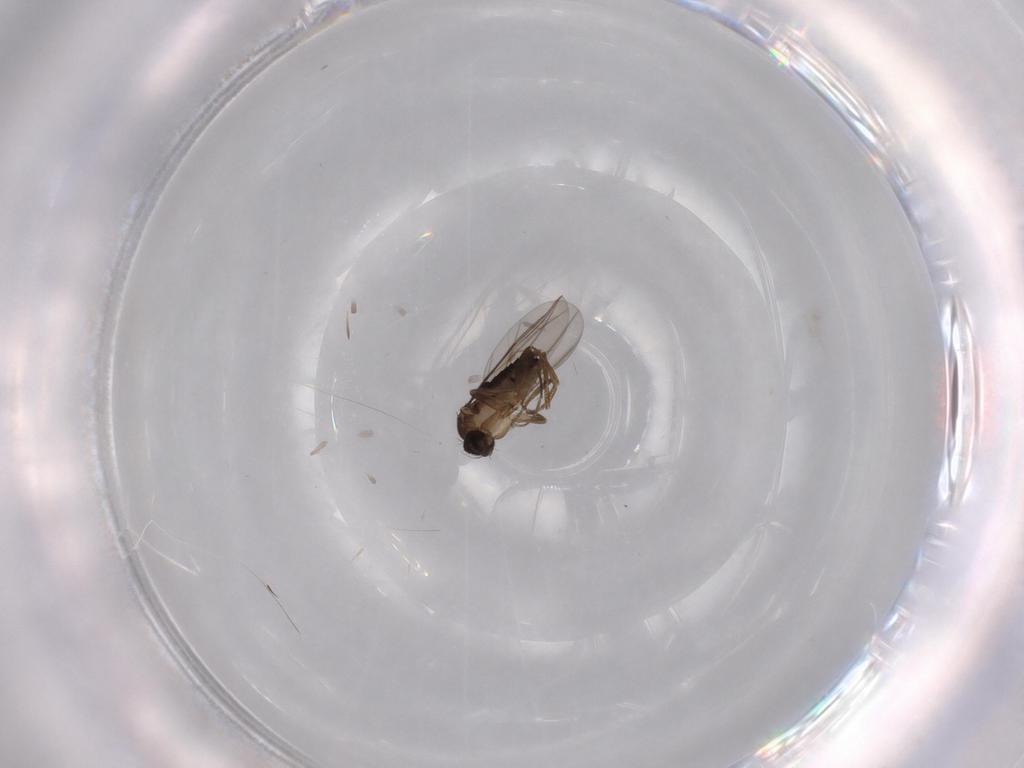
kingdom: Animalia
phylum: Arthropoda
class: Insecta
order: Diptera
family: Phoridae
